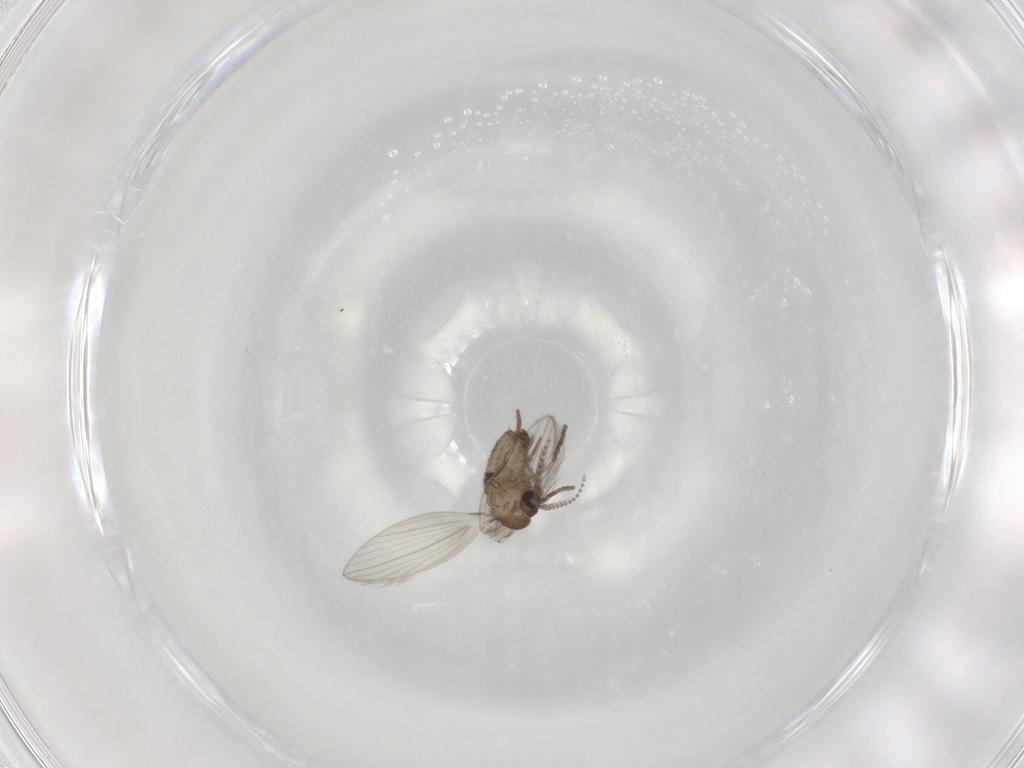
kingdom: Animalia
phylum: Arthropoda
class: Insecta
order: Diptera
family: Psychodidae
